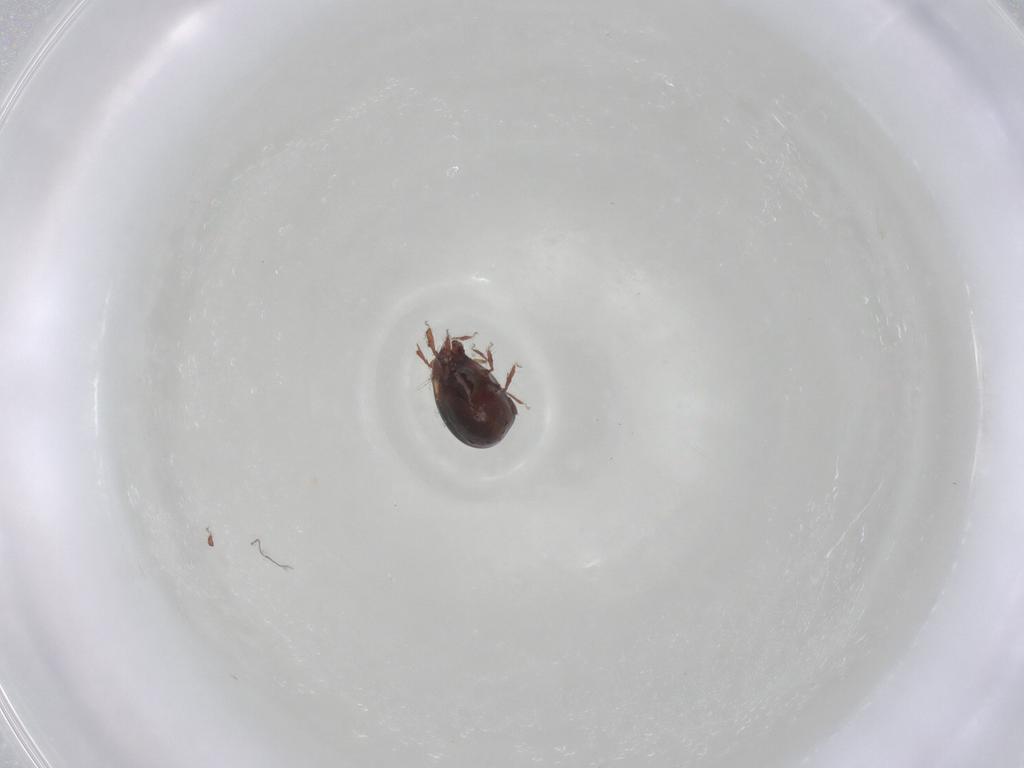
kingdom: Animalia
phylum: Arthropoda
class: Arachnida
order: Sarcoptiformes
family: Humerobatidae
